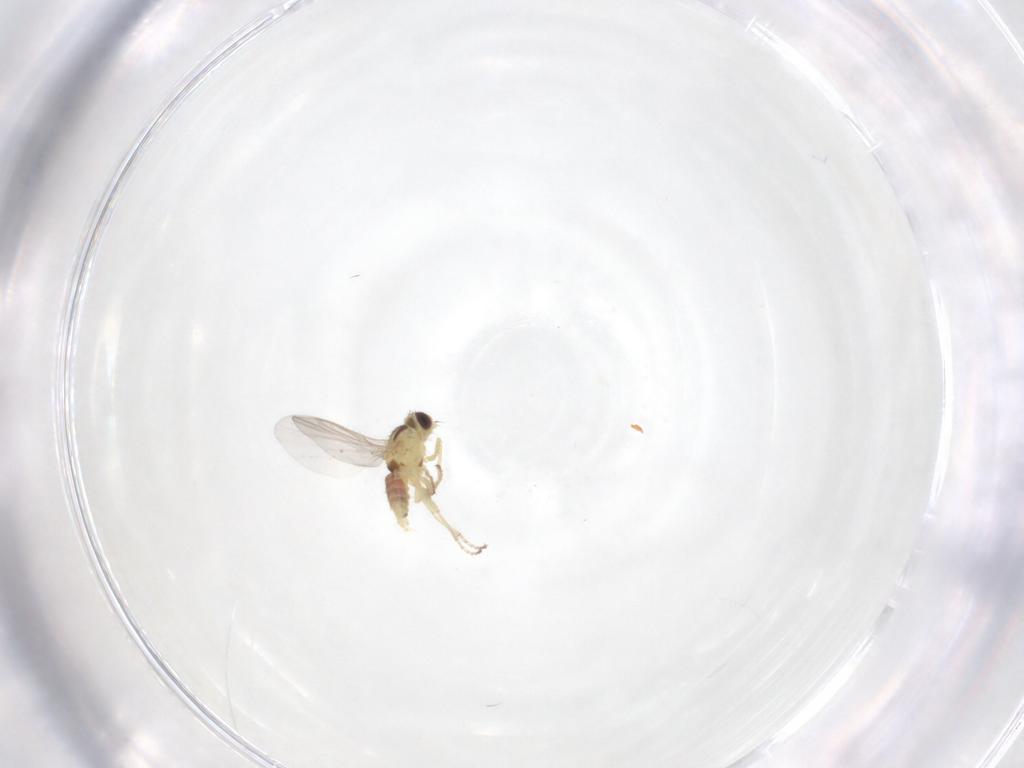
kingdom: Animalia
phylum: Arthropoda
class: Insecta
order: Diptera
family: Agromyzidae
